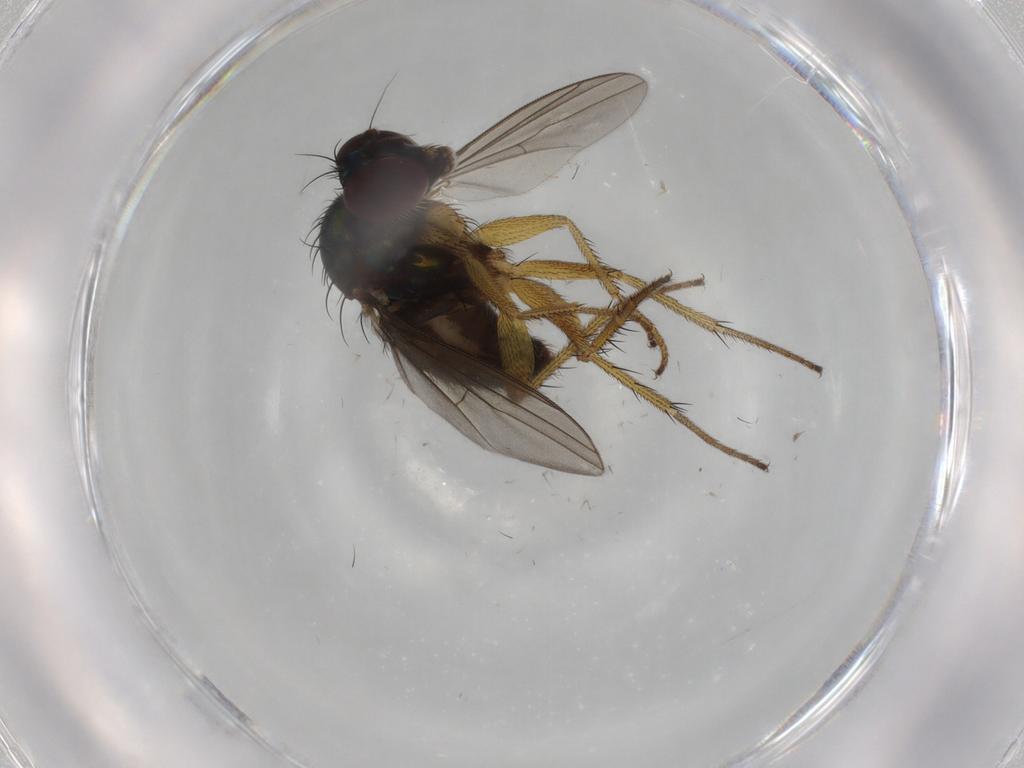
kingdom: Animalia
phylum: Arthropoda
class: Insecta
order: Diptera
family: Dolichopodidae
